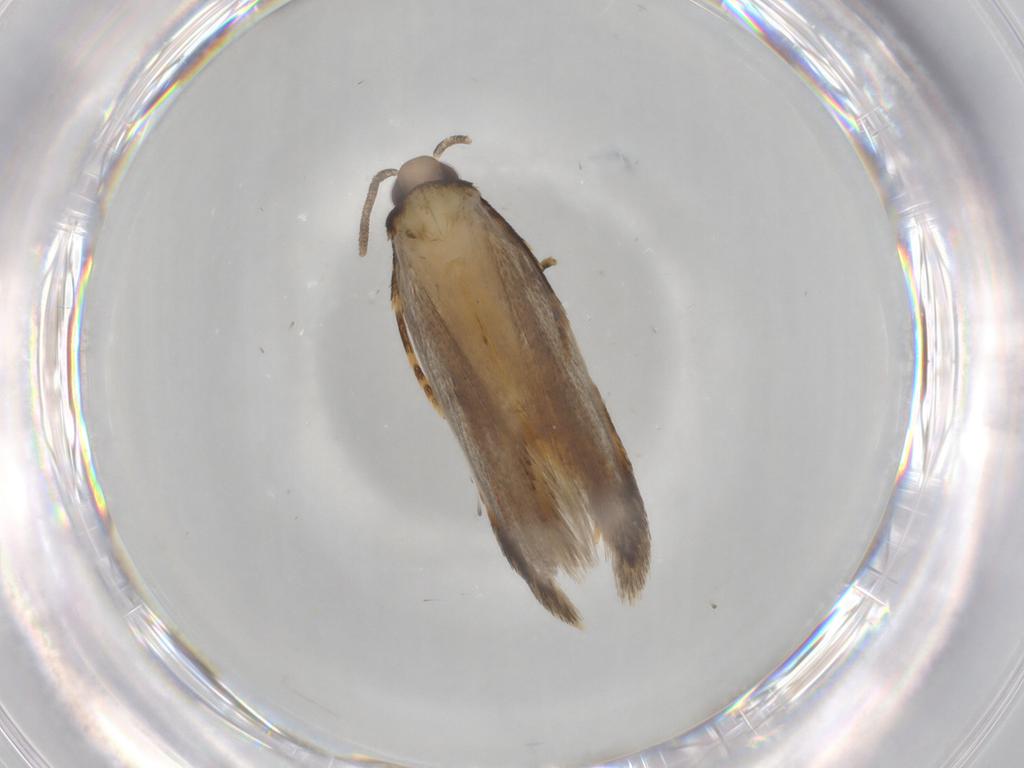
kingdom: Animalia
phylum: Arthropoda
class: Insecta
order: Lepidoptera
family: Autostichidae
